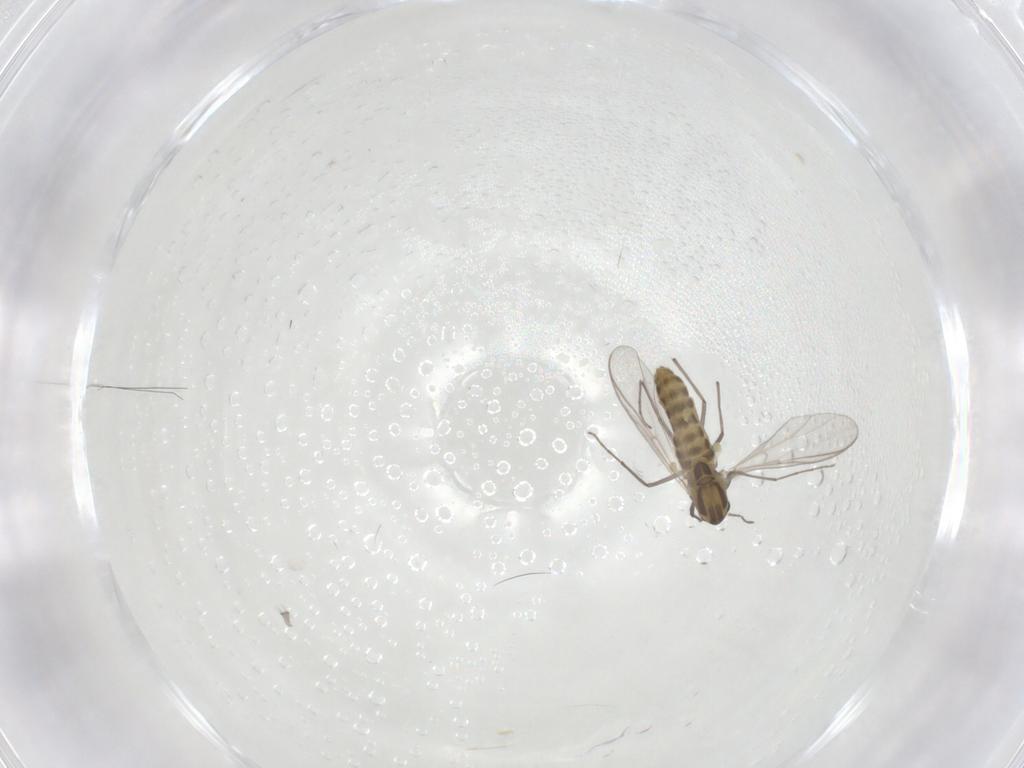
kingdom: Animalia
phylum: Arthropoda
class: Insecta
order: Diptera
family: Chironomidae
